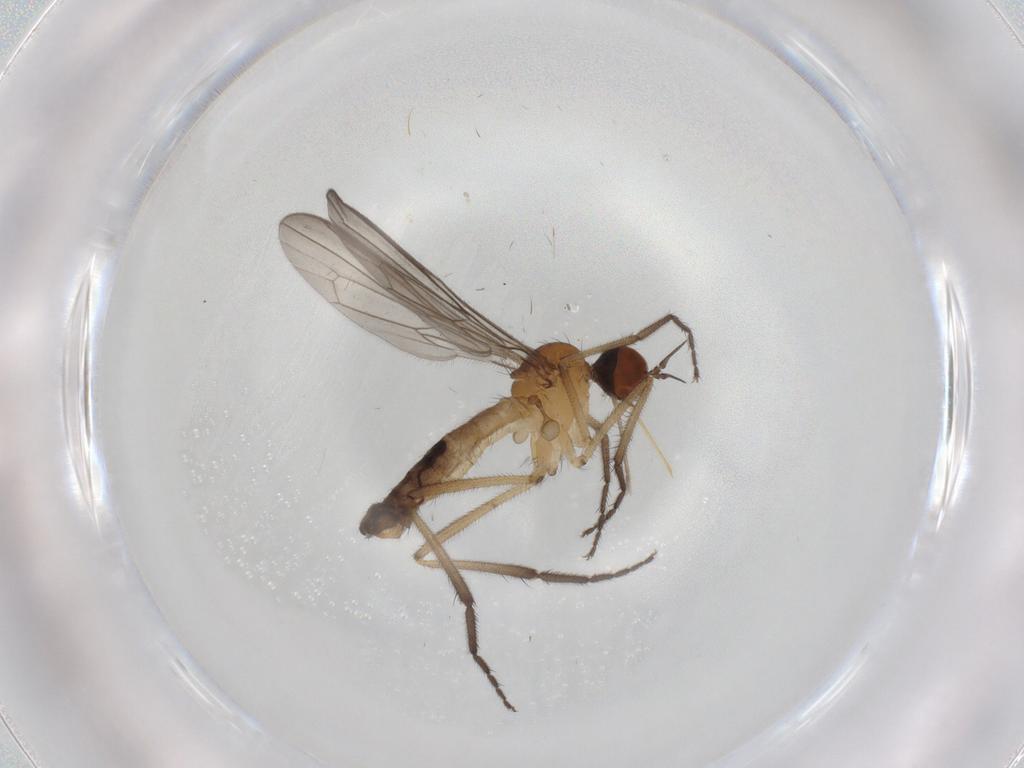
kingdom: Animalia
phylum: Arthropoda
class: Insecta
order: Diptera
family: Empididae
